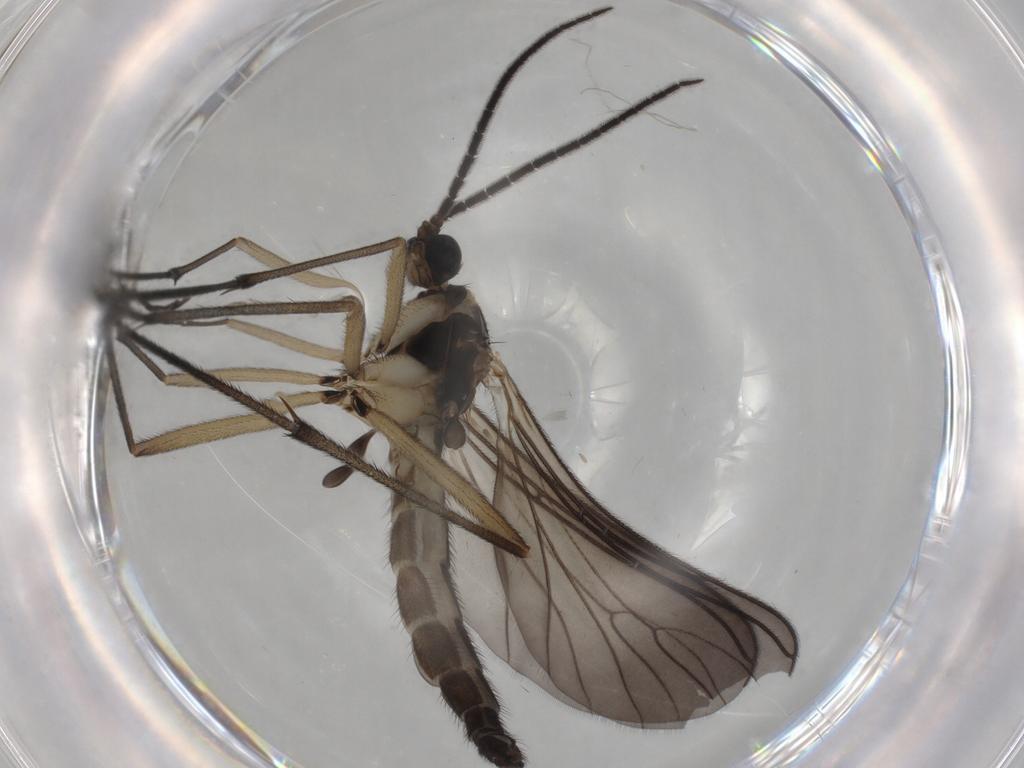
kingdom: Animalia
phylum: Arthropoda
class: Insecta
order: Diptera
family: Sciaridae
